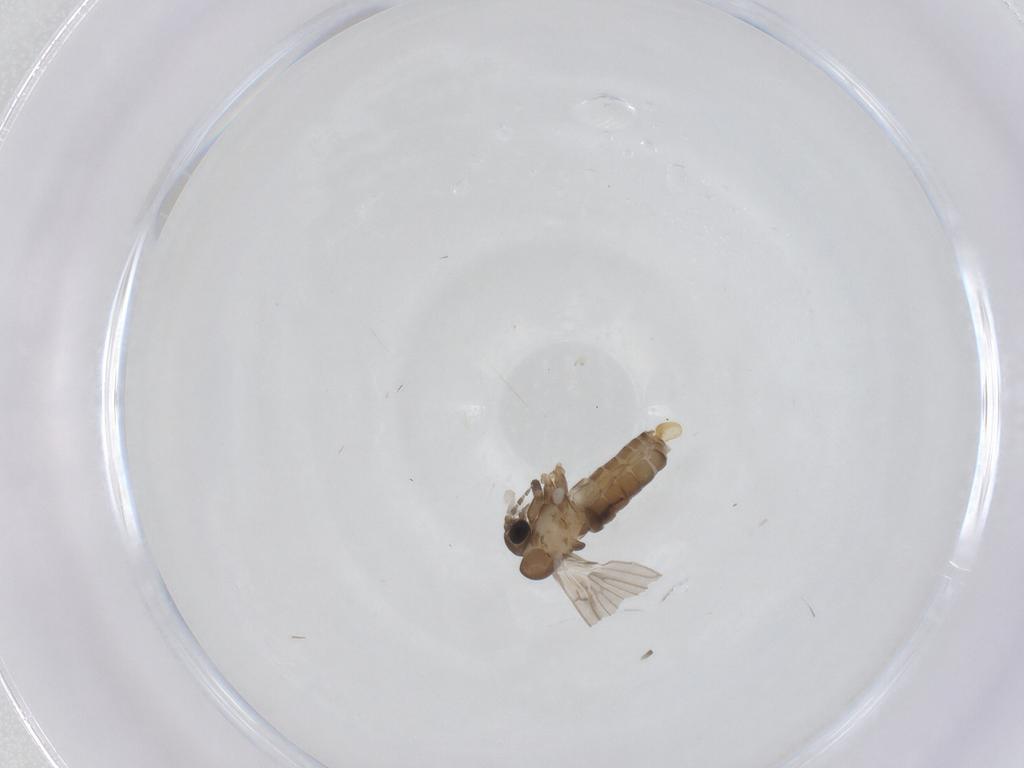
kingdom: Animalia
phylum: Arthropoda
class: Insecta
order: Diptera
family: Psychodidae
